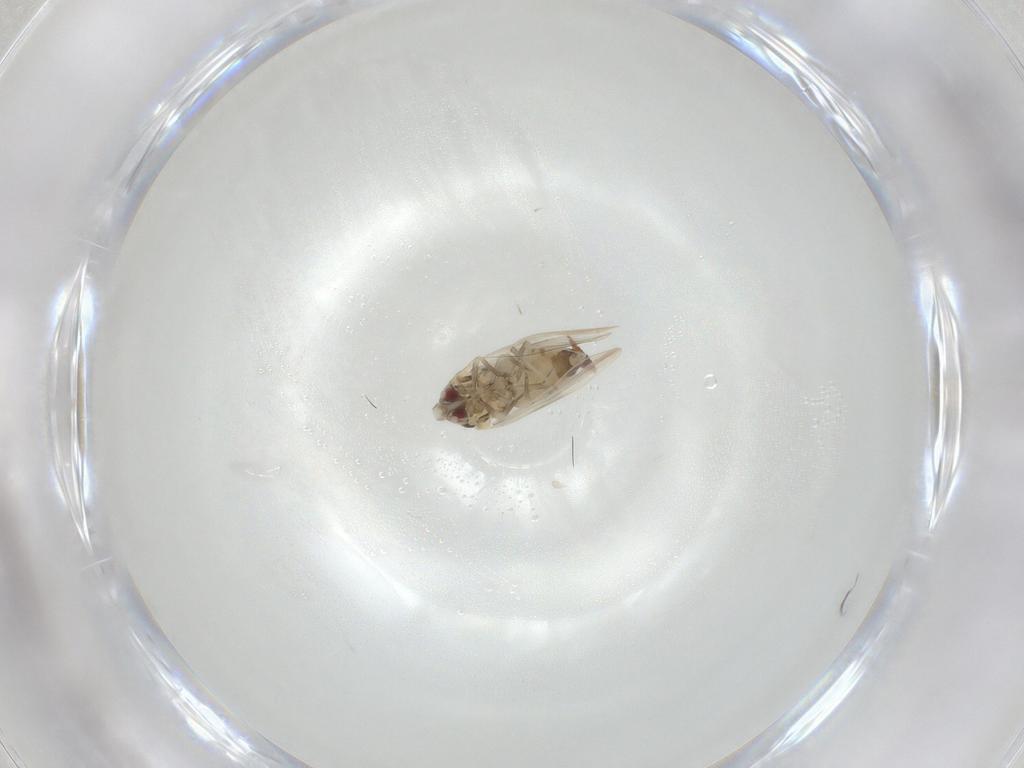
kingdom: Animalia
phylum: Arthropoda
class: Insecta
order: Hemiptera
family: Aleyrodidae
